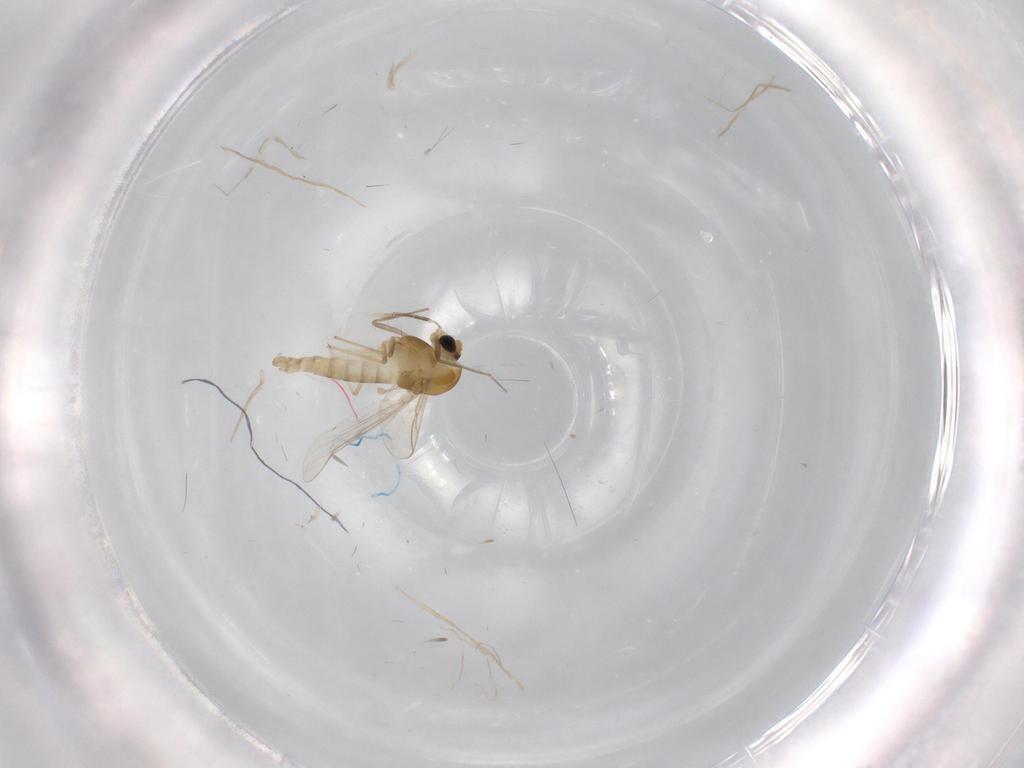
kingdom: Animalia
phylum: Arthropoda
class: Insecta
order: Diptera
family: Chironomidae
